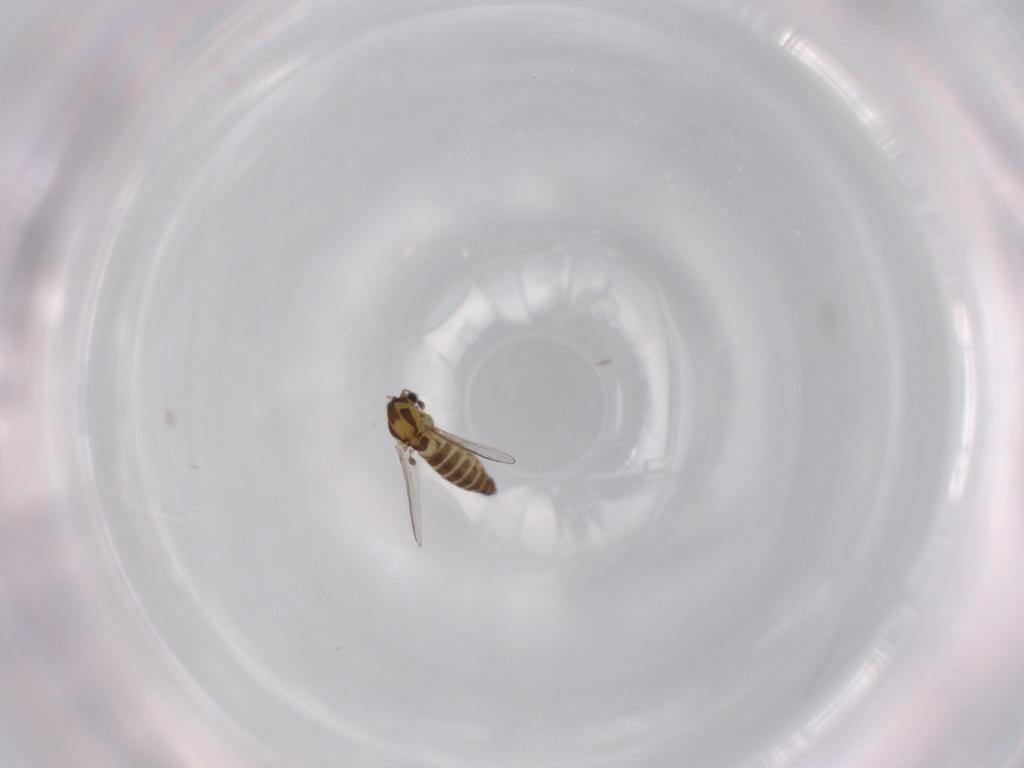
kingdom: Animalia
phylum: Arthropoda
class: Insecta
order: Diptera
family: Chironomidae
